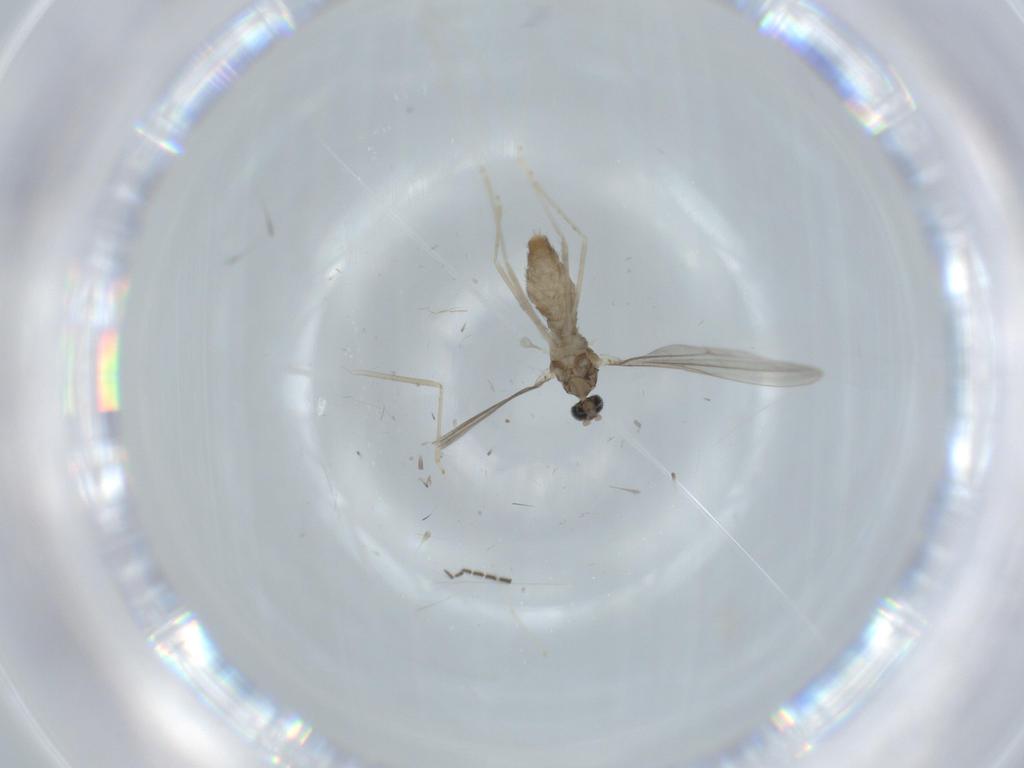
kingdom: Animalia
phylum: Arthropoda
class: Insecta
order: Diptera
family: Cecidomyiidae
